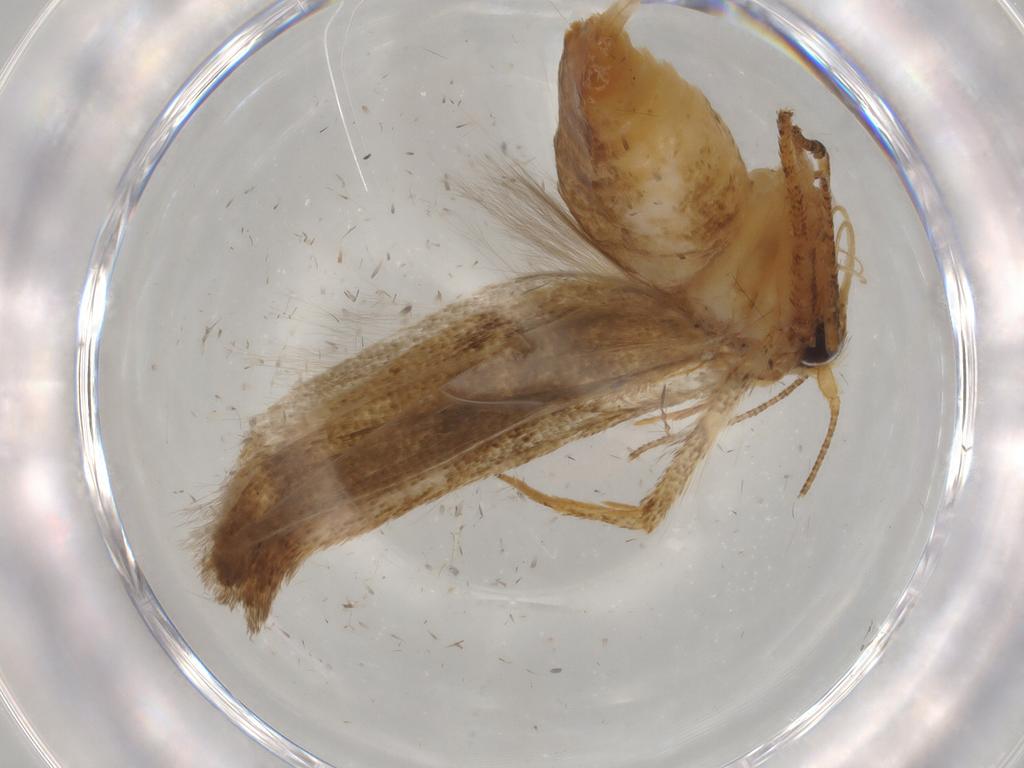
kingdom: Animalia
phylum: Arthropoda
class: Insecta
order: Lepidoptera
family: Blastobasidae
